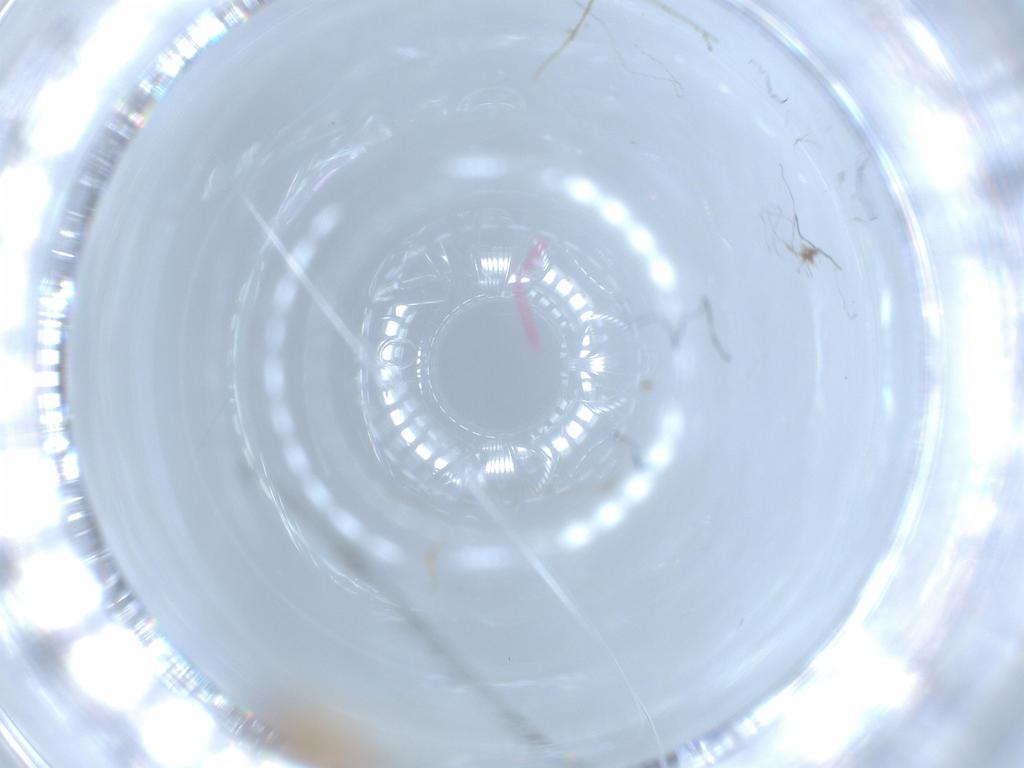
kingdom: Animalia
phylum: Arthropoda
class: Insecta
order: Diptera
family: Cecidomyiidae
